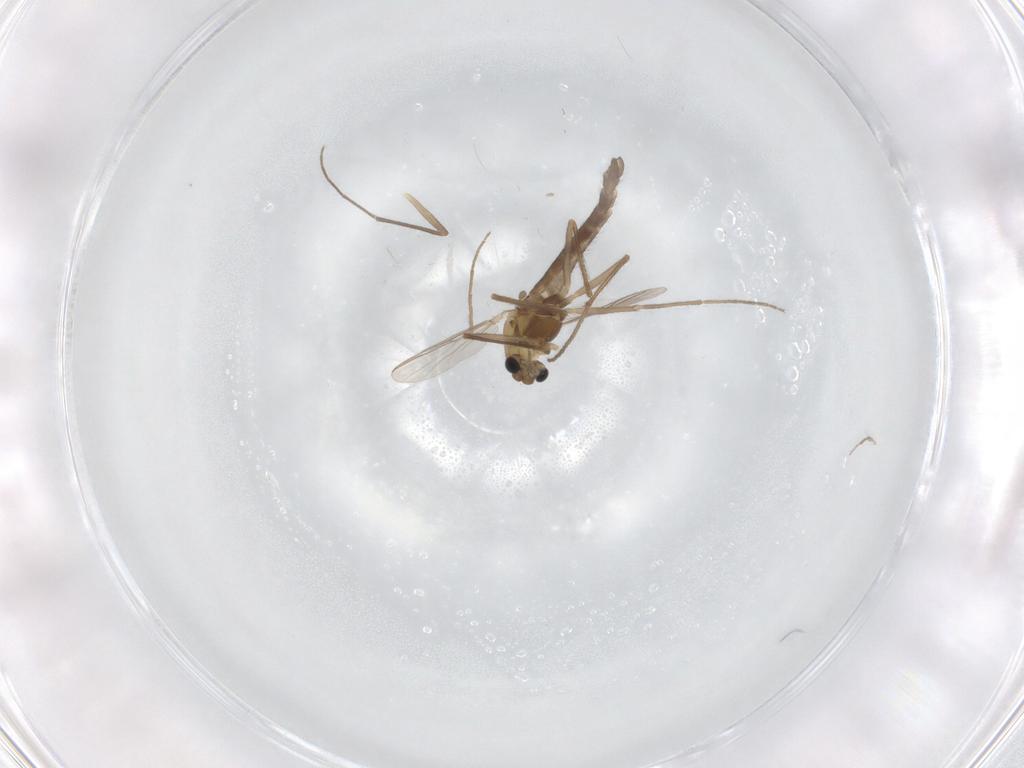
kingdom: Animalia
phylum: Arthropoda
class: Insecta
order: Diptera
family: Chironomidae
